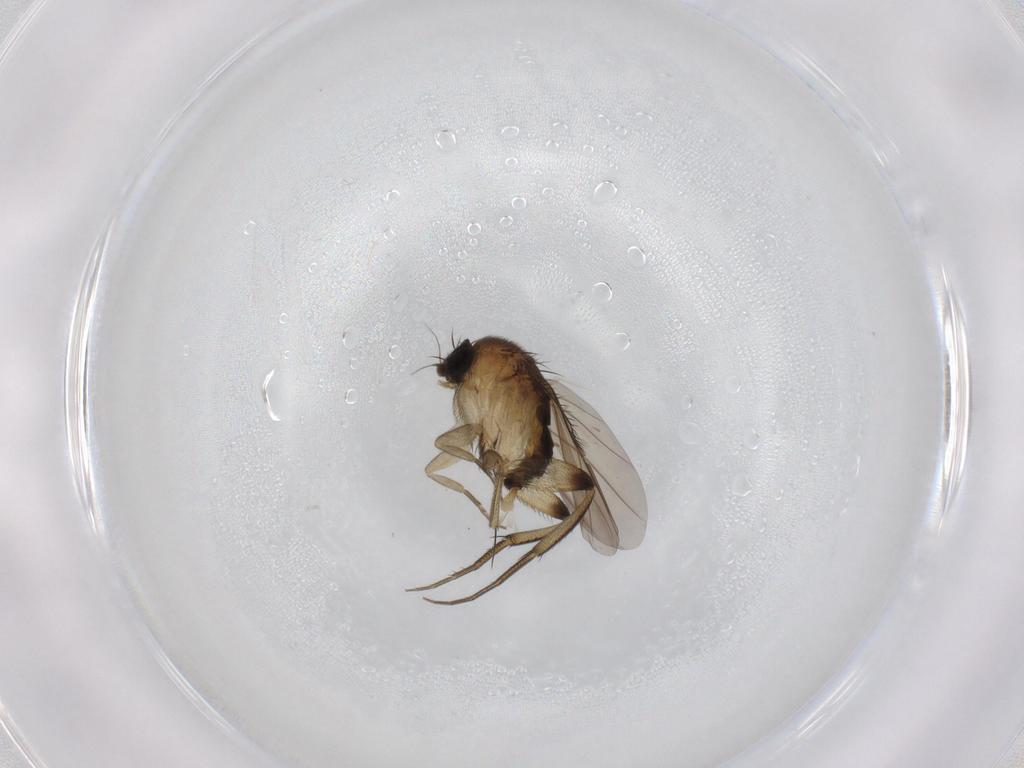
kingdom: Animalia
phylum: Arthropoda
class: Insecta
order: Diptera
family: Phoridae
